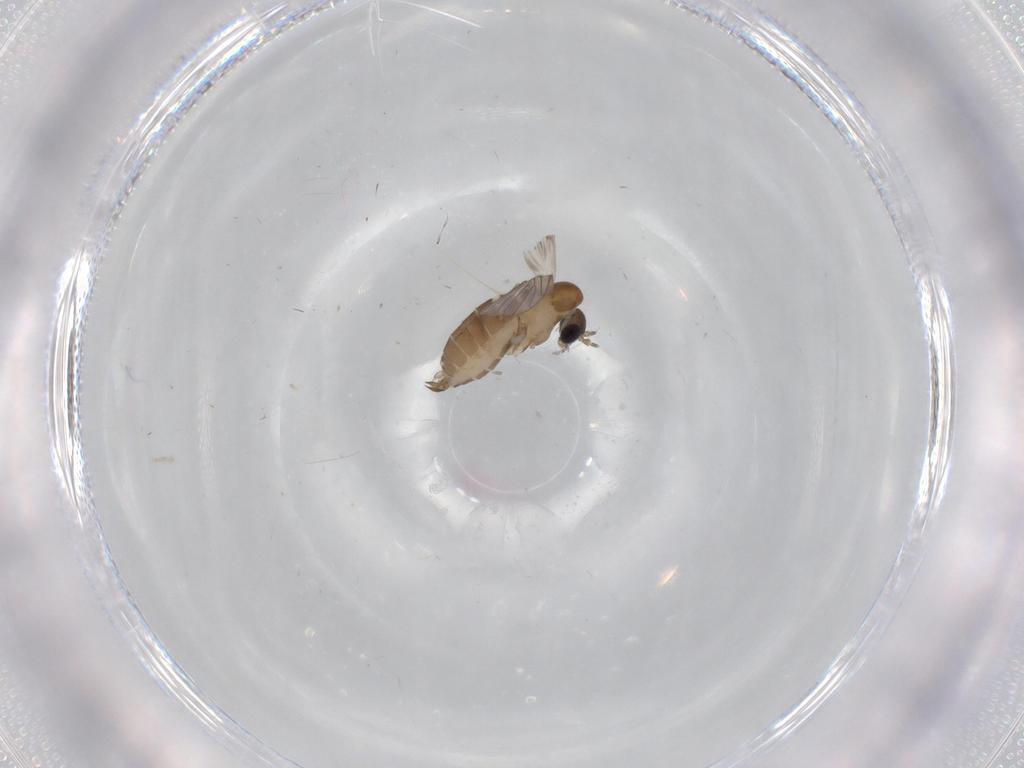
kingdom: Animalia
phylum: Arthropoda
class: Insecta
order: Diptera
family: Psychodidae
